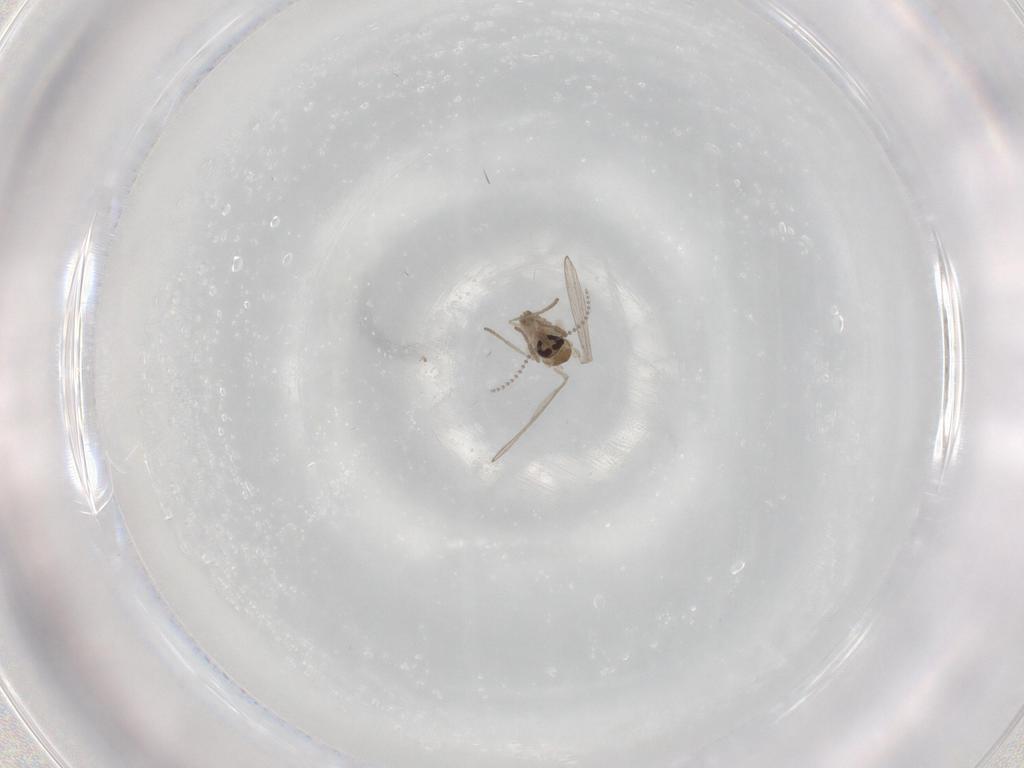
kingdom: Animalia
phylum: Arthropoda
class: Insecta
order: Diptera
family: Psychodidae
